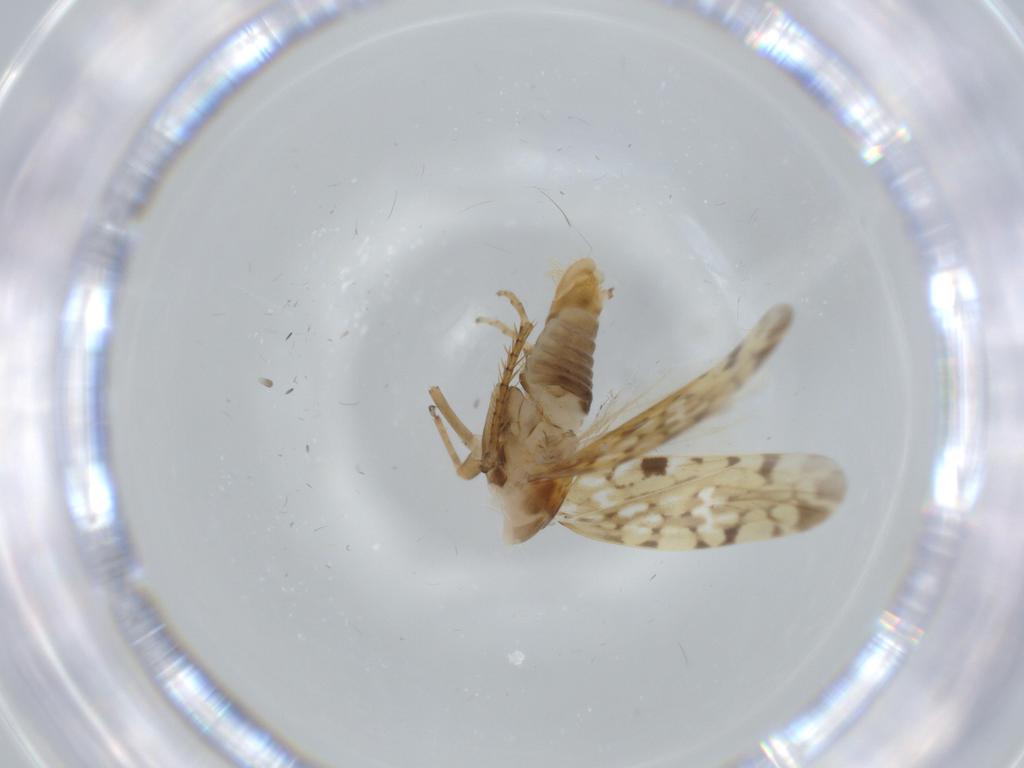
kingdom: Animalia
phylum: Arthropoda
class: Insecta
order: Hemiptera
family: Cicadellidae
